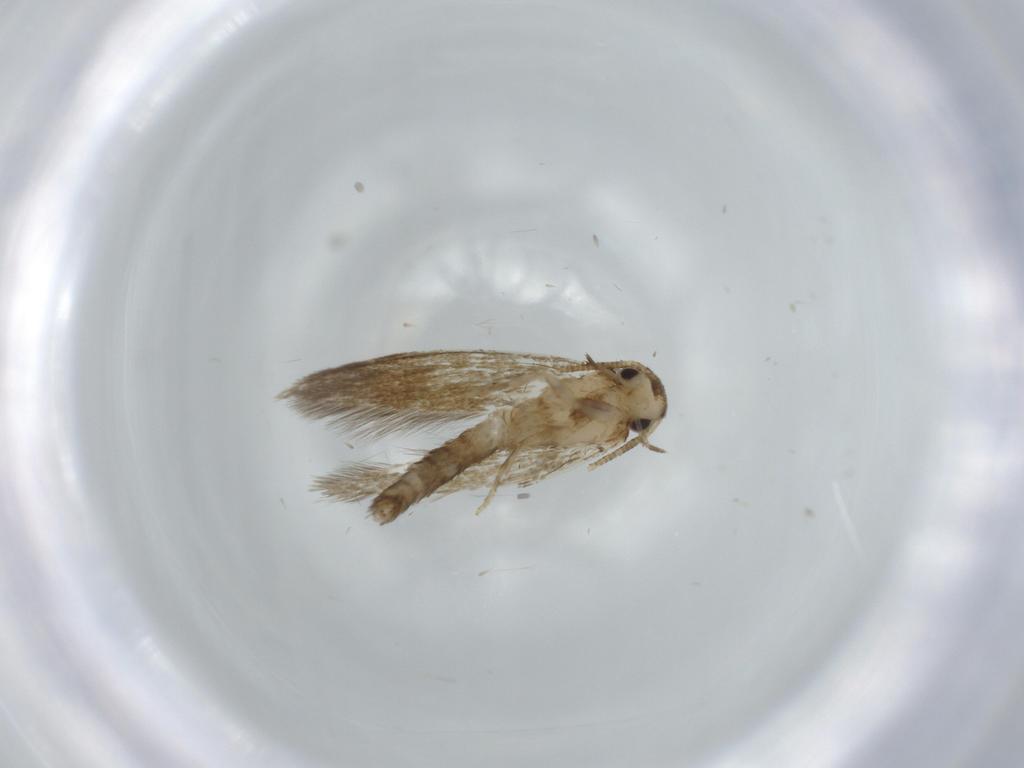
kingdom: Animalia
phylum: Arthropoda
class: Insecta
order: Lepidoptera
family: Tineidae
